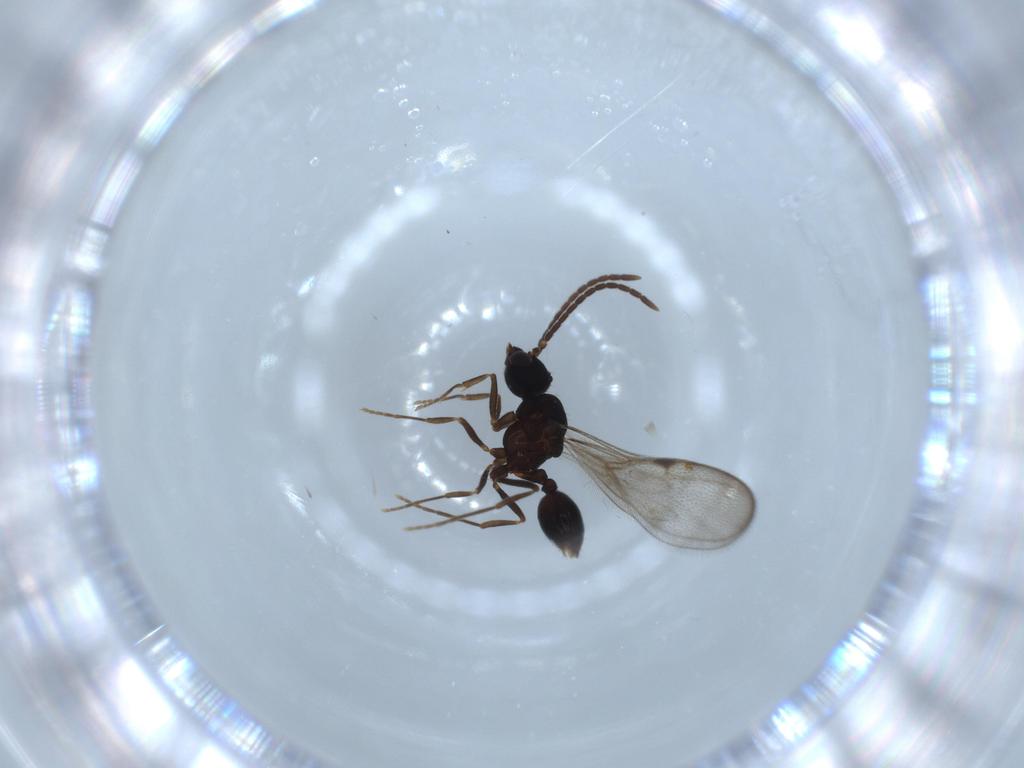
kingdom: Animalia
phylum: Arthropoda
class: Insecta
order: Hymenoptera
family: Formicidae
